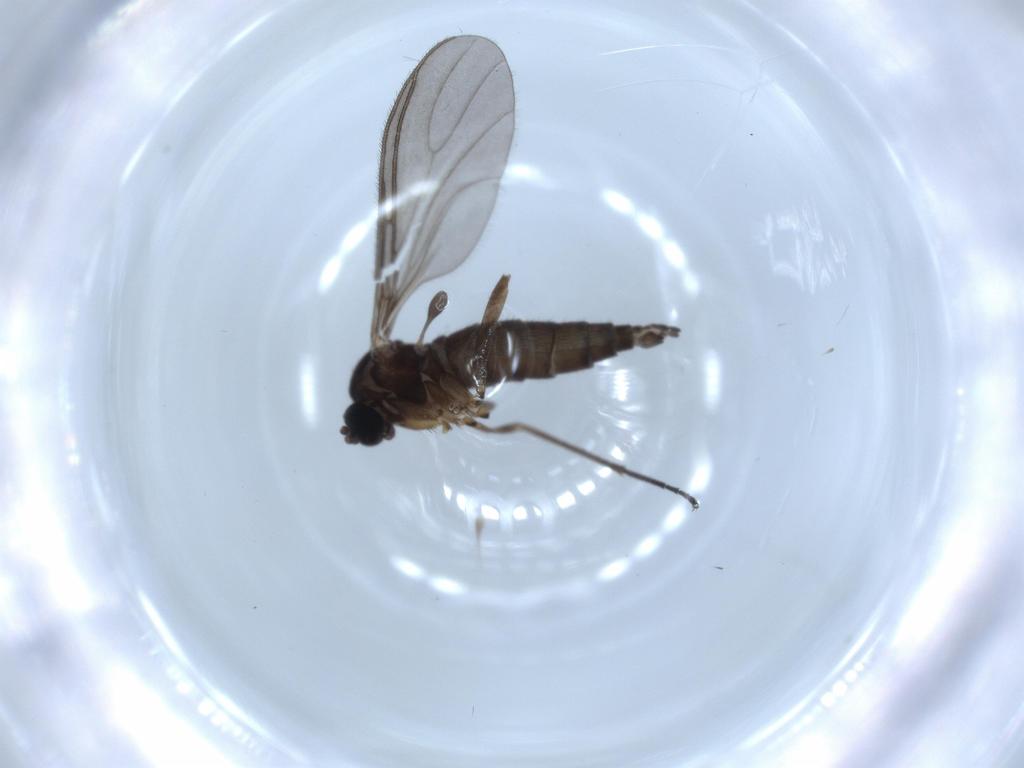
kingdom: Animalia
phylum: Arthropoda
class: Insecta
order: Diptera
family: Sciaridae
